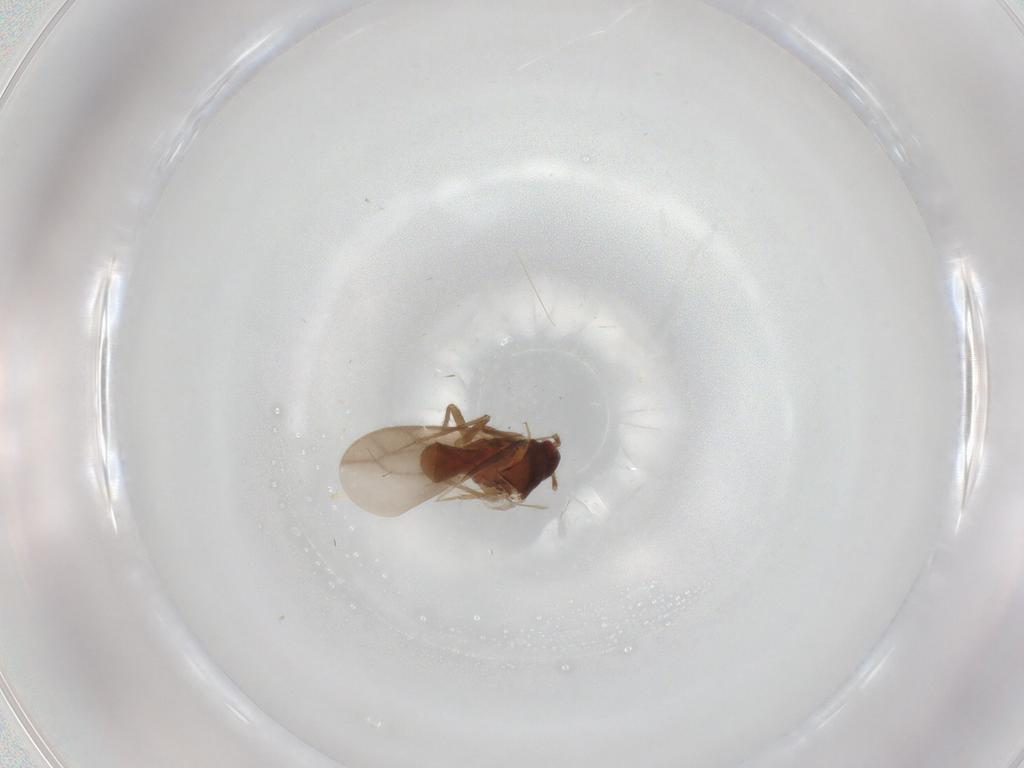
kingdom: Animalia
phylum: Arthropoda
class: Insecta
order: Hemiptera
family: Ceratocombidae
